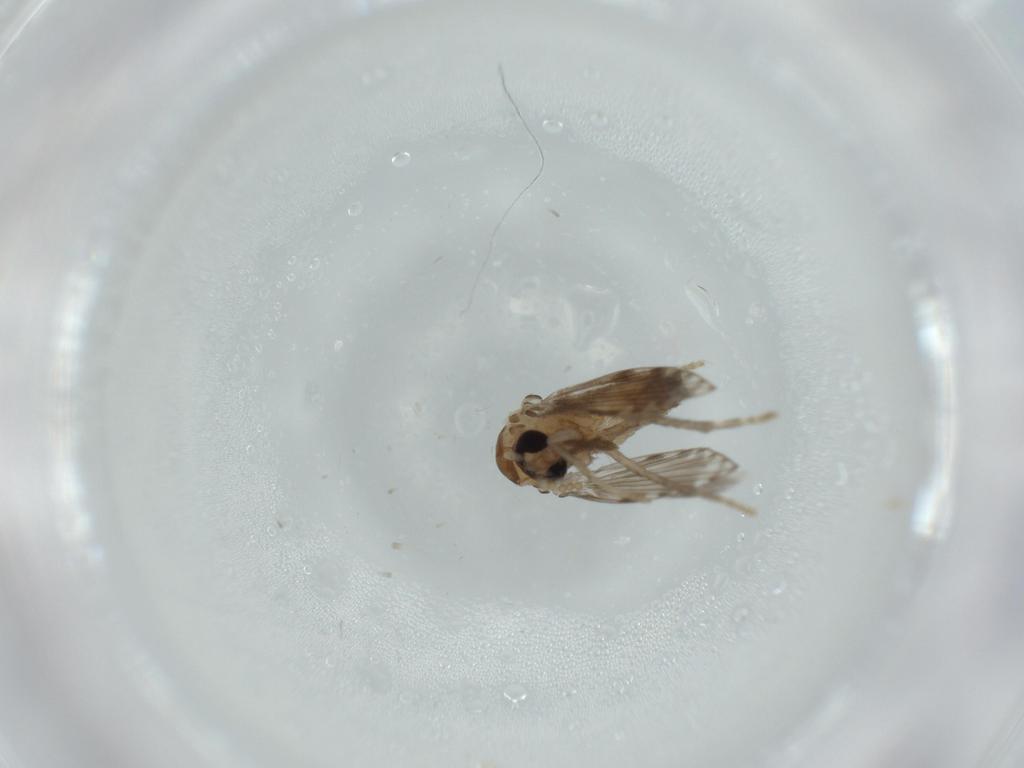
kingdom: Animalia
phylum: Arthropoda
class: Insecta
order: Diptera
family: Psychodidae
